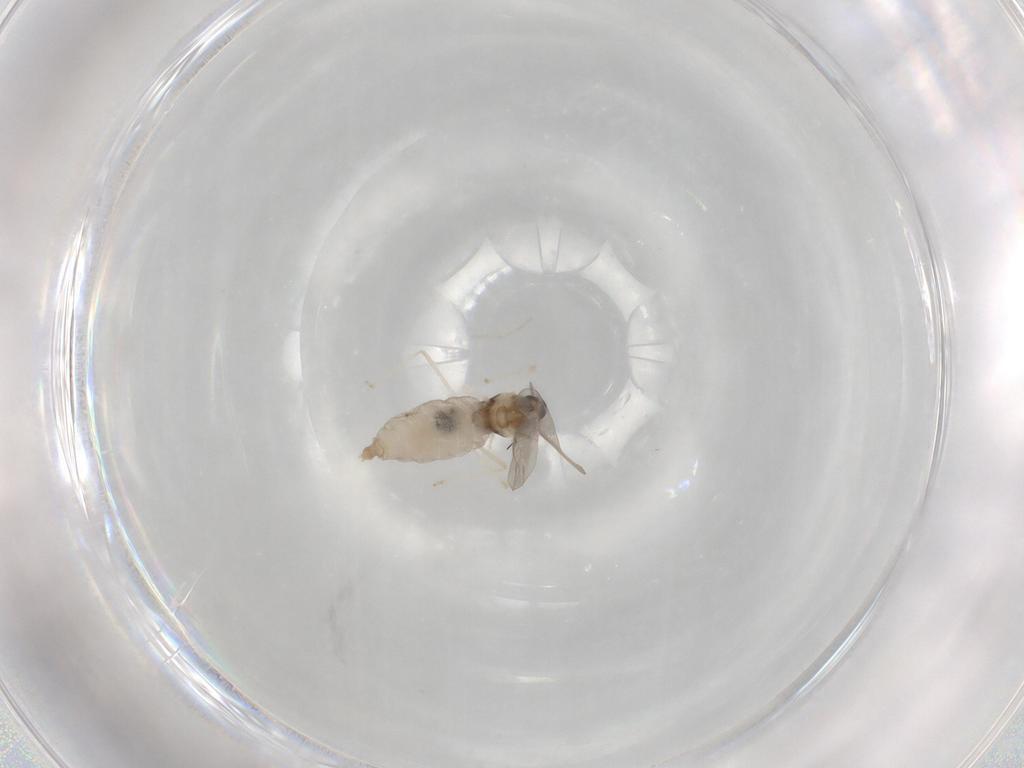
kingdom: Animalia
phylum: Arthropoda
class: Insecta
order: Diptera
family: Cecidomyiidae
